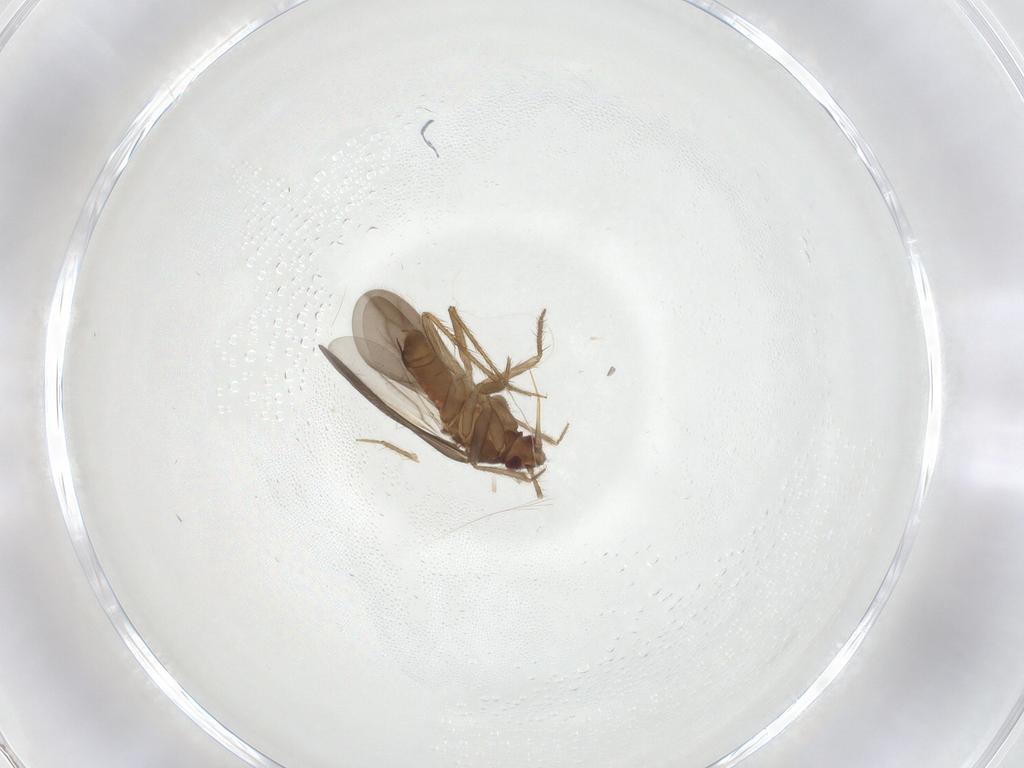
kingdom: Animalia
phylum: Arthropoda
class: Insecta
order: Hemiptera
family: Ceratocombidae
